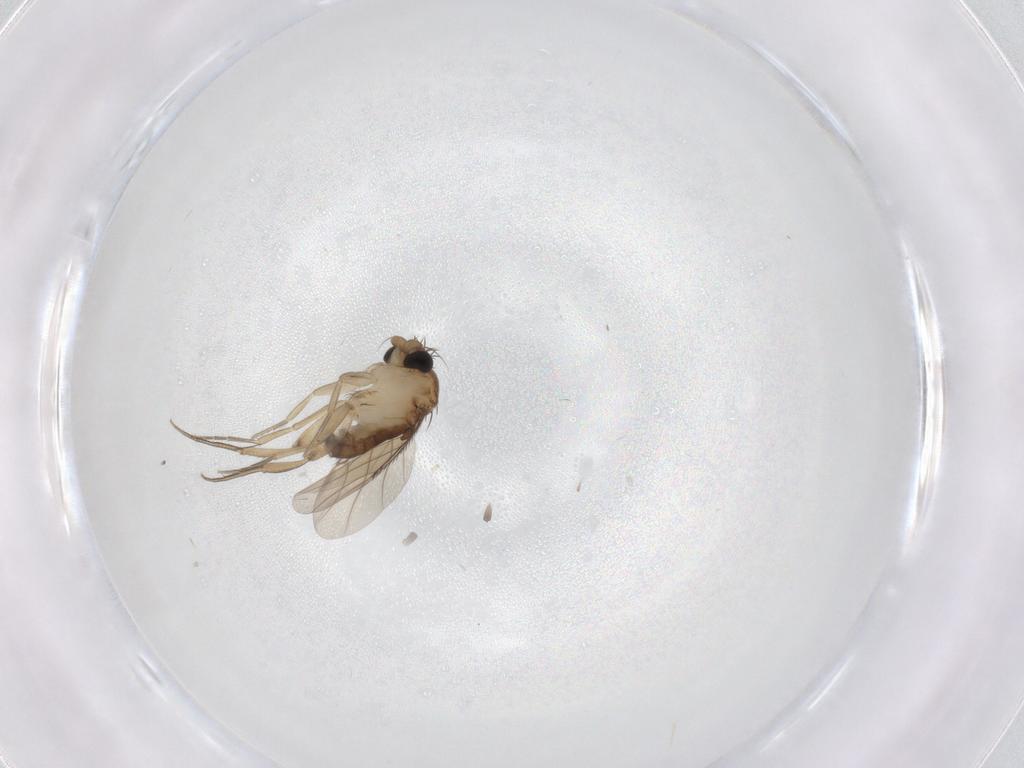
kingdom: Animalia
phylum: Arthropoda
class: Insecta
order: Diptera
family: Phoridae
